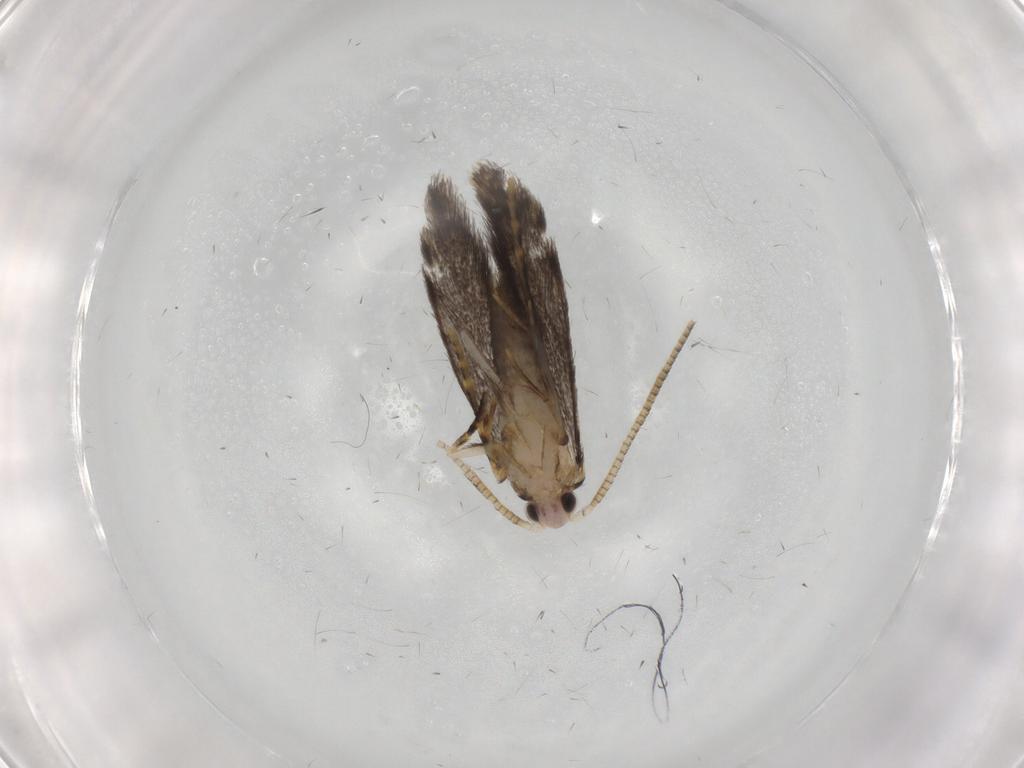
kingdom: Animalia
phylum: Arthropoda
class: Insecta
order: Lepidoptera
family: Tineidae
